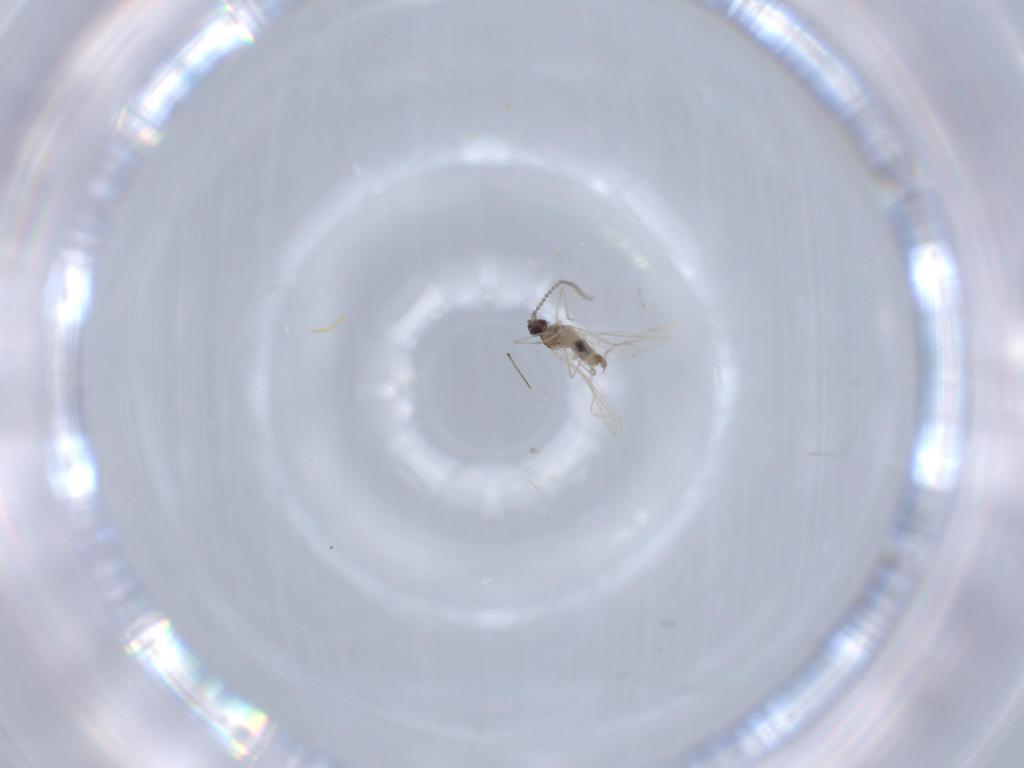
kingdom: Animalia
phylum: Arthropoda
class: Insecta
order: Diptera
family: Cecidomyiidae
